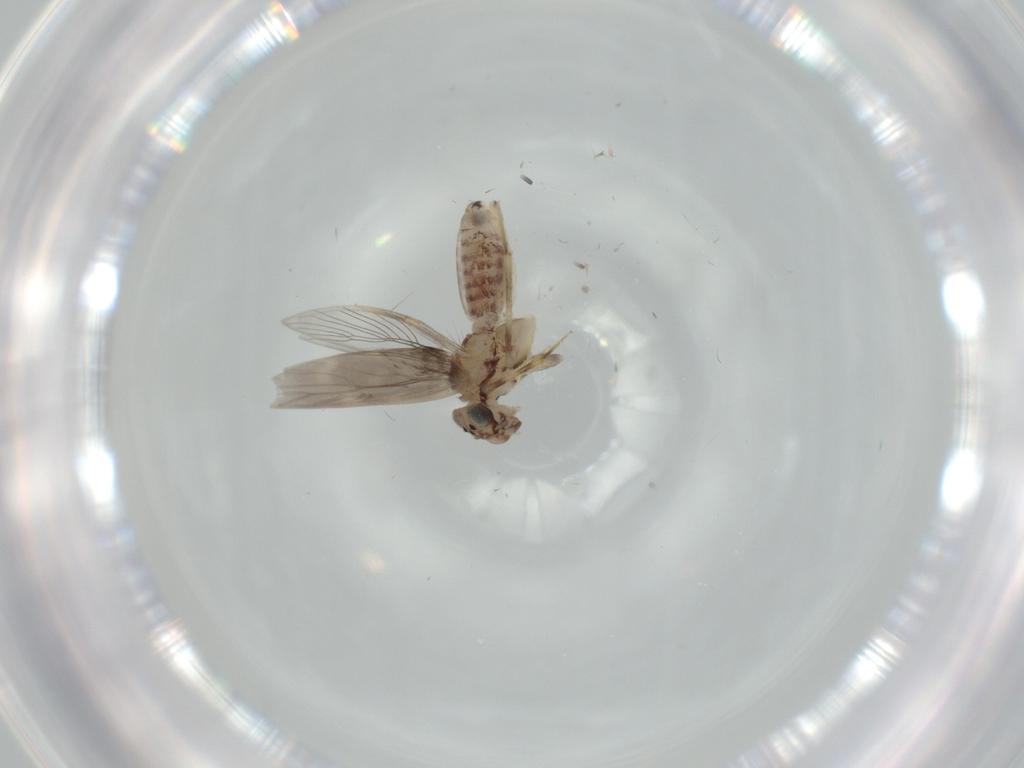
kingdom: Animalia
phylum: Arthropoda
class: Insecta
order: Psocodea
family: Lepidopsocidae
